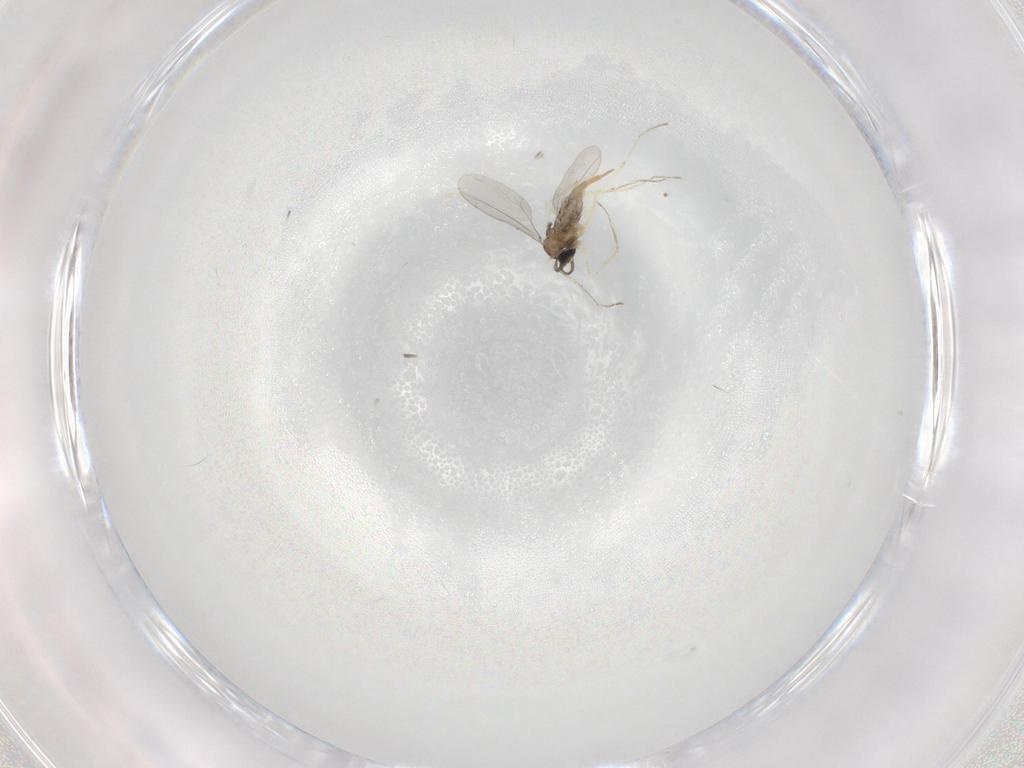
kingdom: Animalia
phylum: Arthropoda
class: Insecta
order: Diptera
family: Cecidomyiidae
